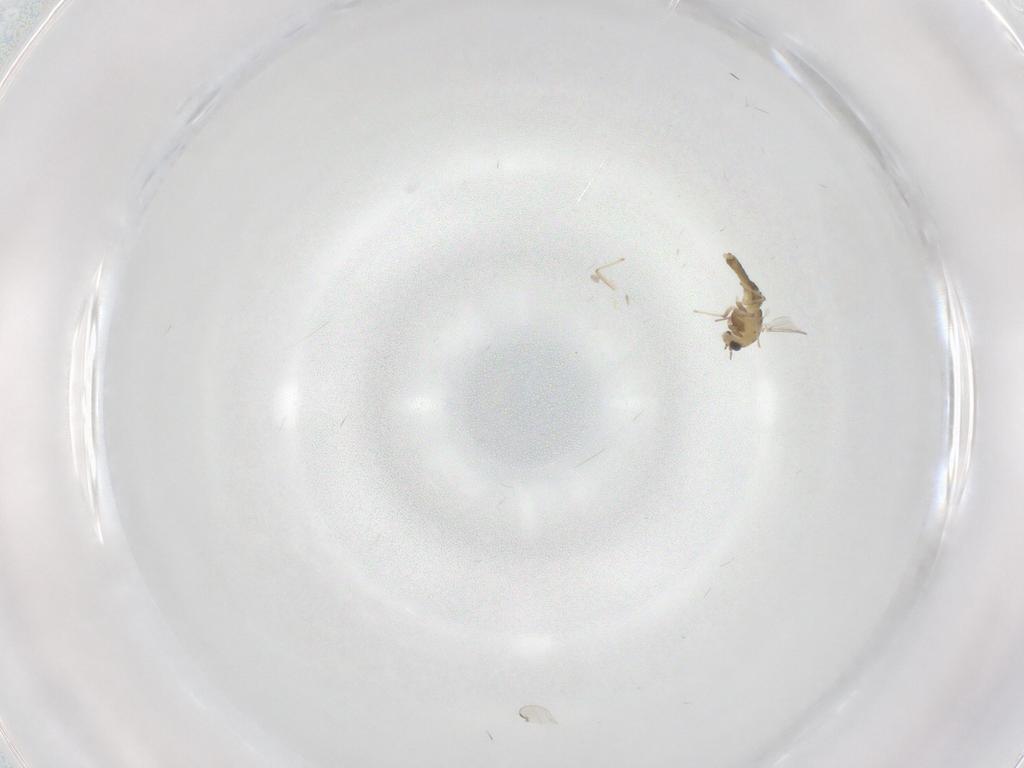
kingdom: Animalia
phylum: Arthropoda
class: Insecta
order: Diptera
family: Chironomidae
